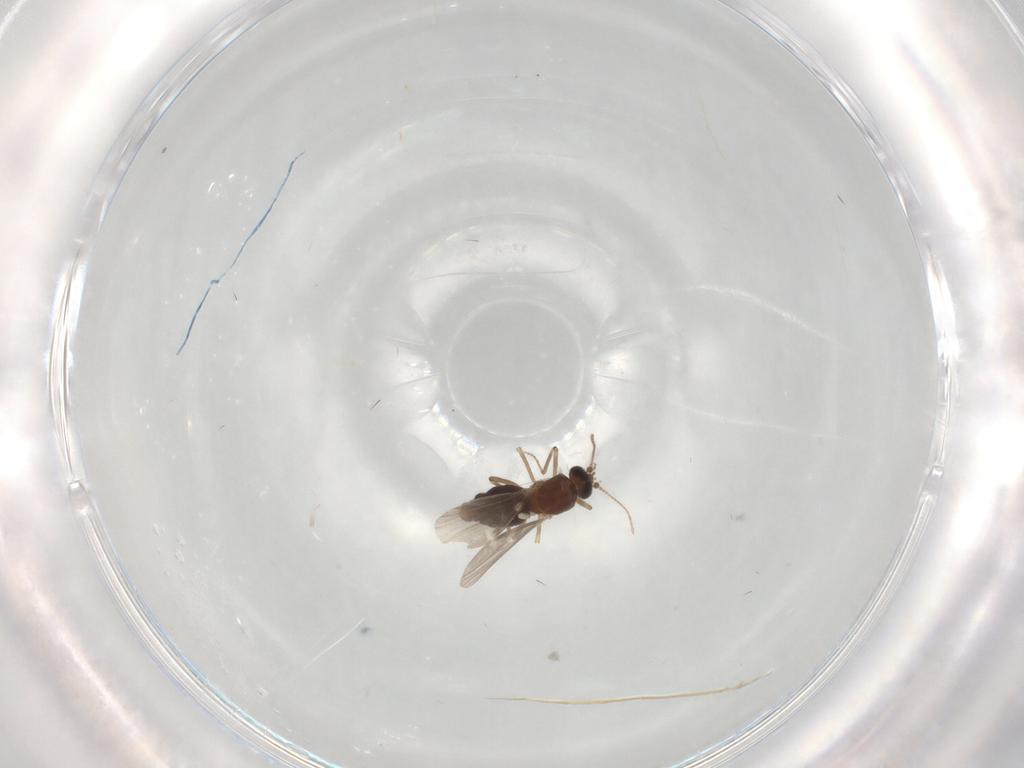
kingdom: Animalia
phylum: Arthropoda
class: Insecta
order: Diptera
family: Ceratopogonidae
